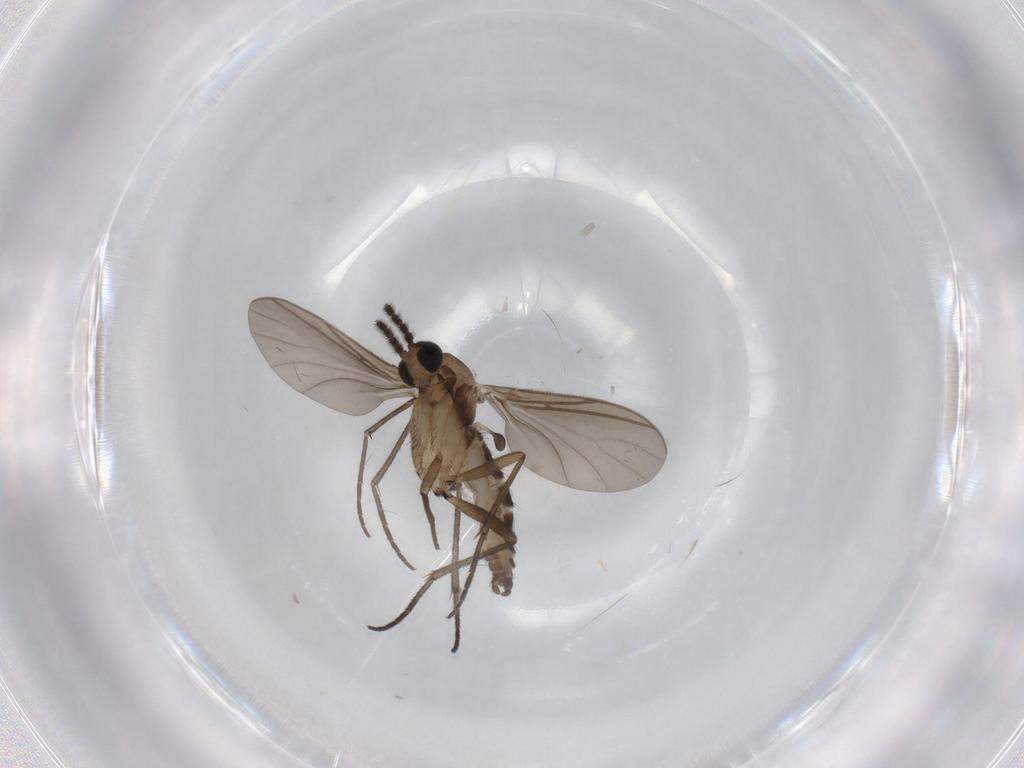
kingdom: Animalia
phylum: Arthropoda
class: Insecta
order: Diptera
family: Sciaridae
